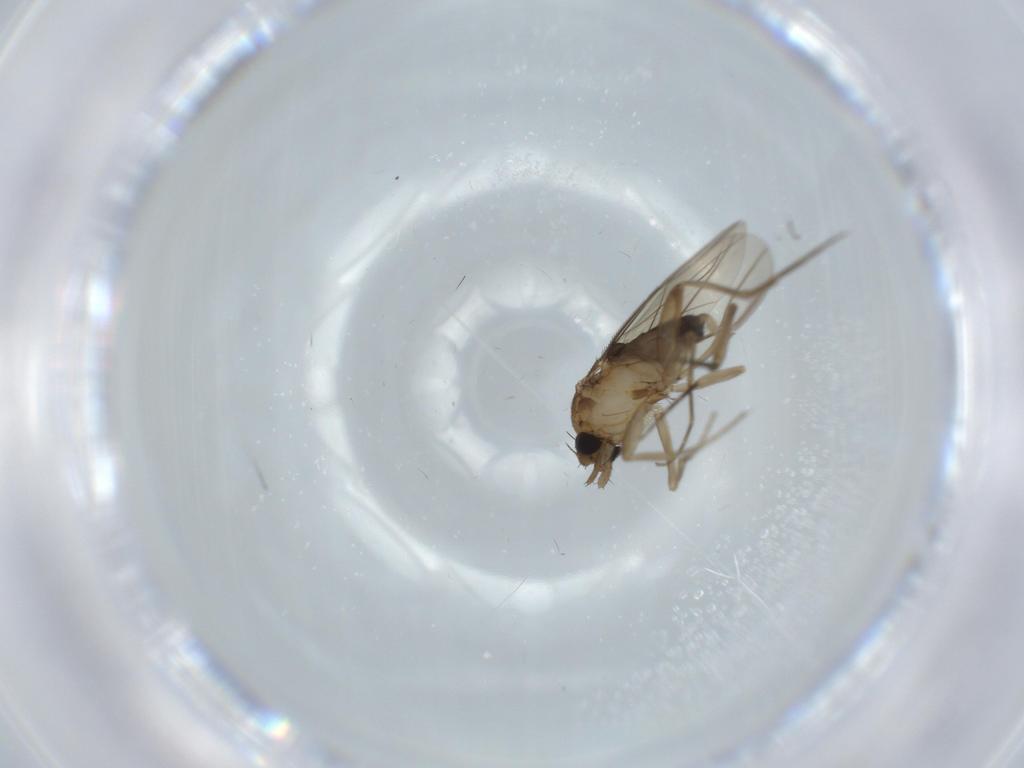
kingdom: Animalia
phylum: Arthropoda
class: Insecta
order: Diptera
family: Phoridae
